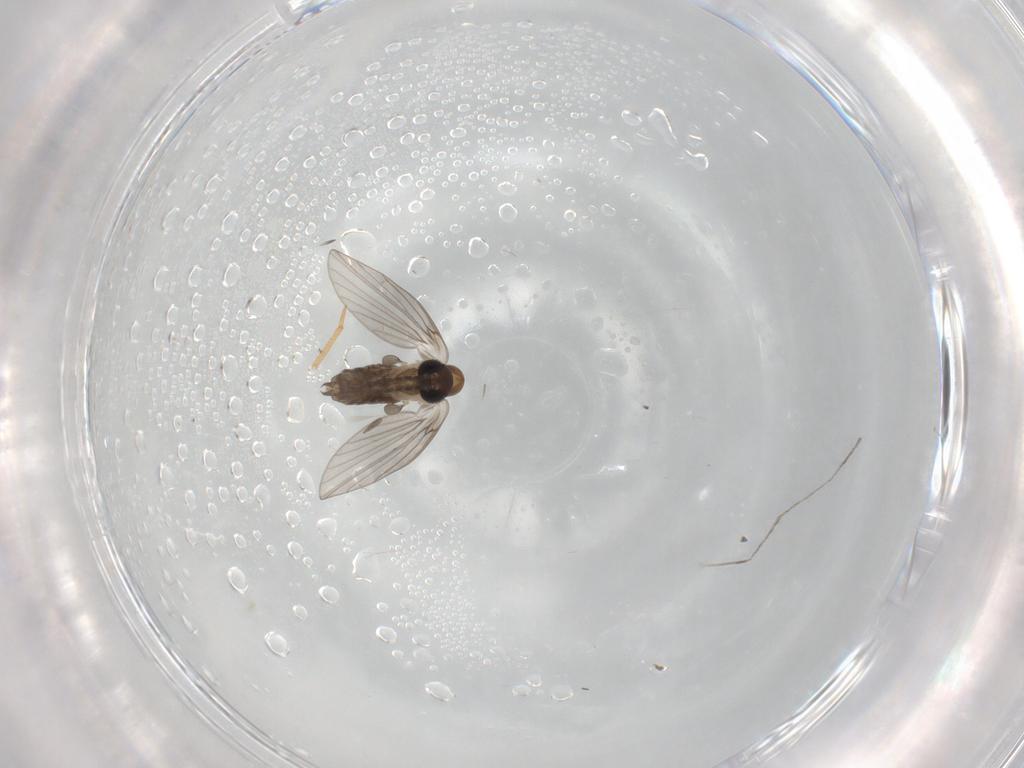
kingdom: Animalia
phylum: Arthropoda
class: Insecta
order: Diptera
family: Psychodidae
